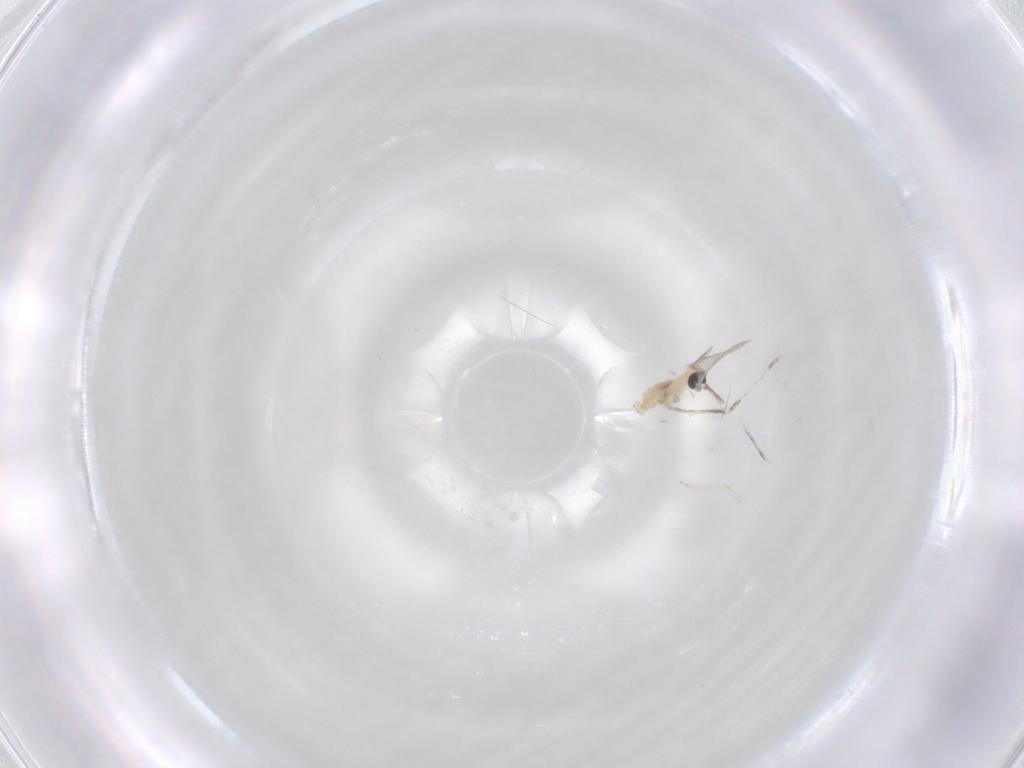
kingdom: Animalia
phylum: Arthropoda
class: Insecta
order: Diptera
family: Cecidomyiidae
